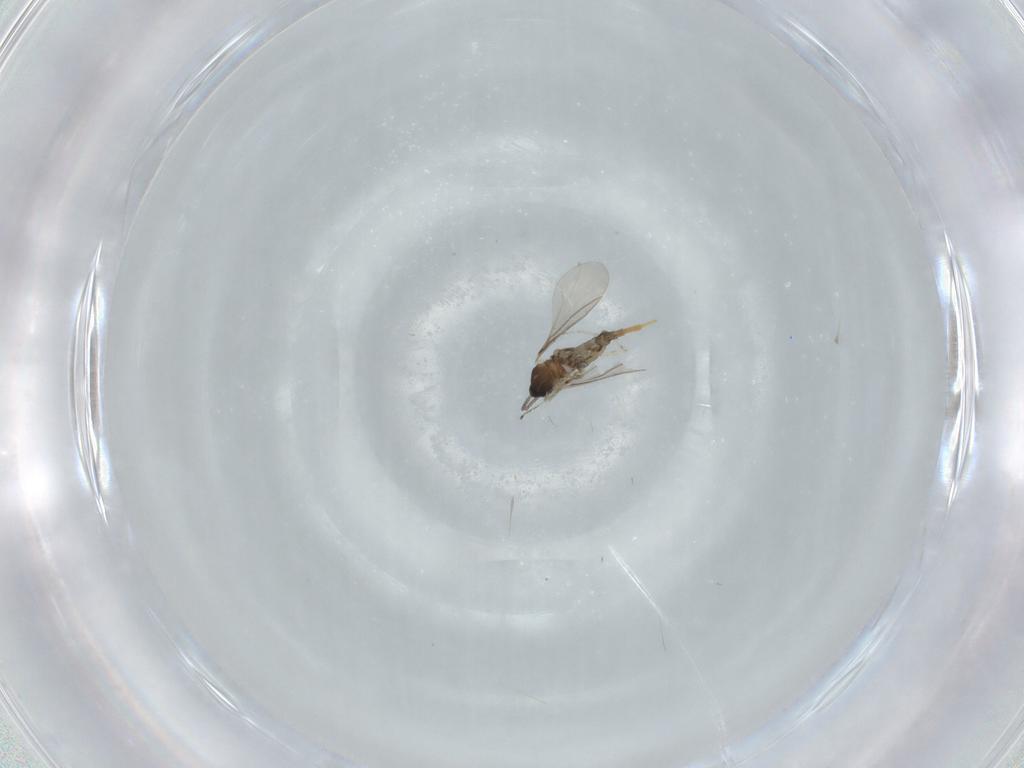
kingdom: Animalia
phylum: Arthropoda
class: Insecta
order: Diptera
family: Cecidomyiidae
